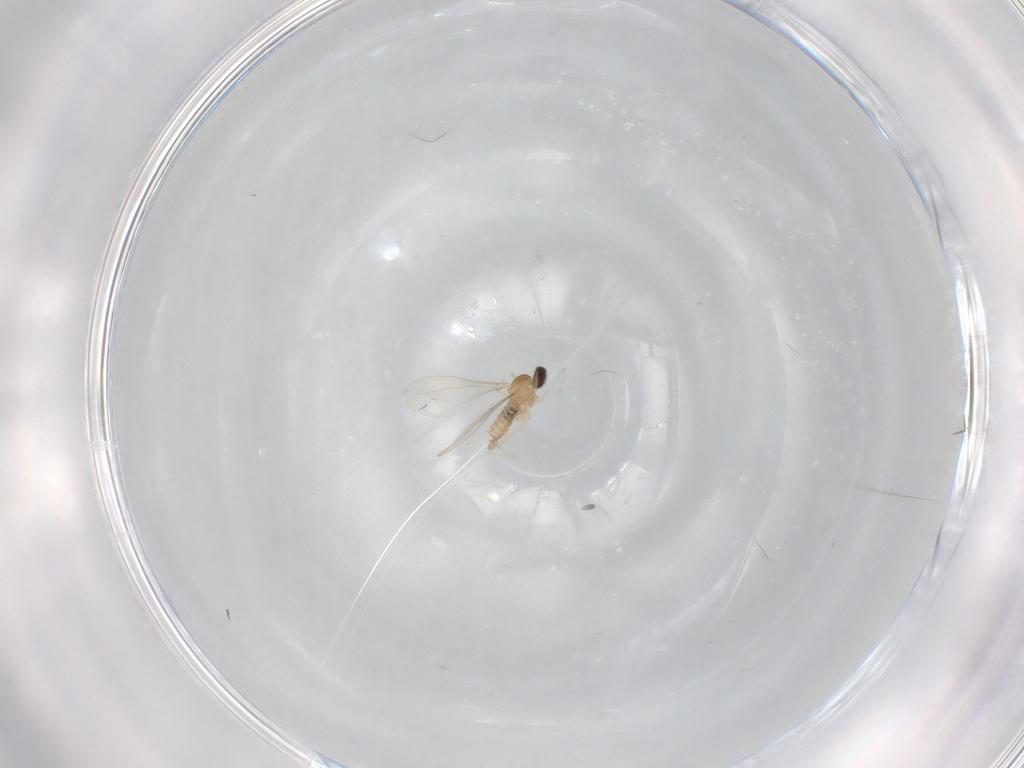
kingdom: Animalia
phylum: Arthropoda
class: Insecta
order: Diptera
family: Cecidomyiidae
